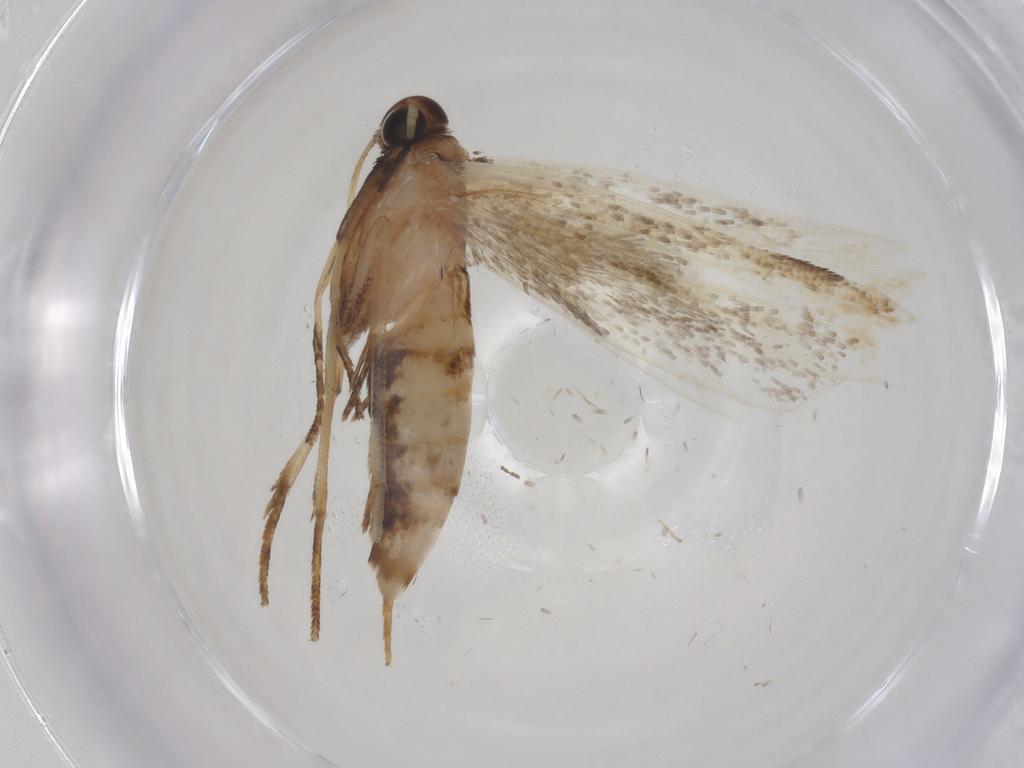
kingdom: Animalia
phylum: Arthropoda
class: Insecta
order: Lepidoptera
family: Gelechiidae
